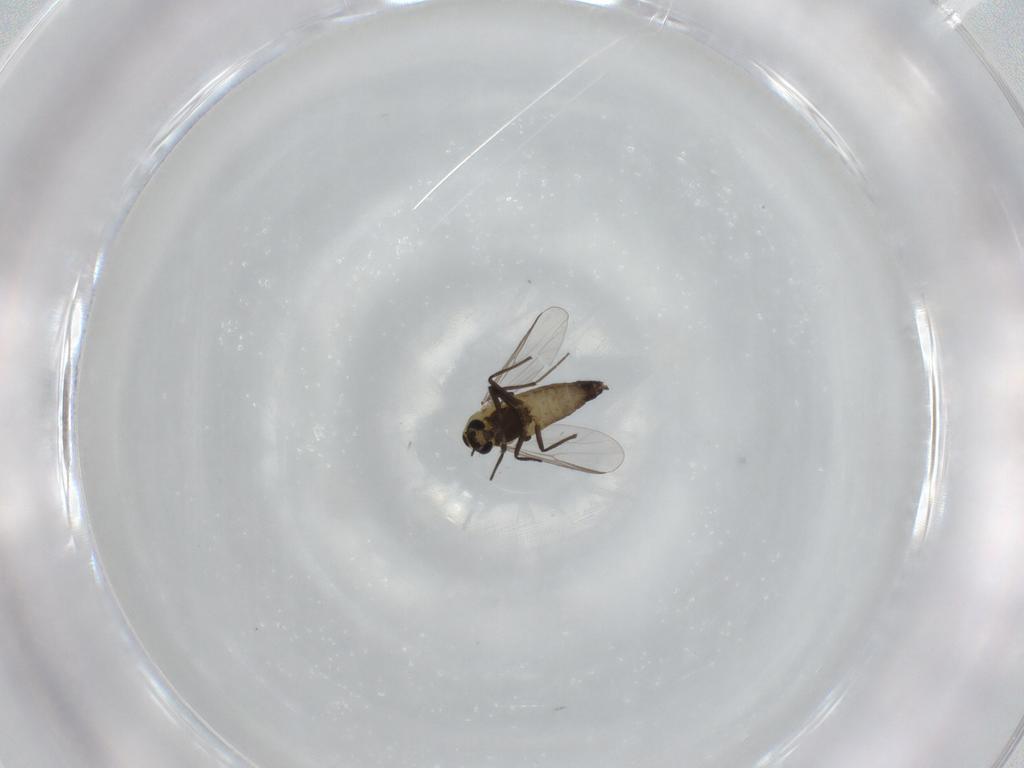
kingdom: Animalia
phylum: Arthropoda
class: Insecta
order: Diptera
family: Chironomidae
